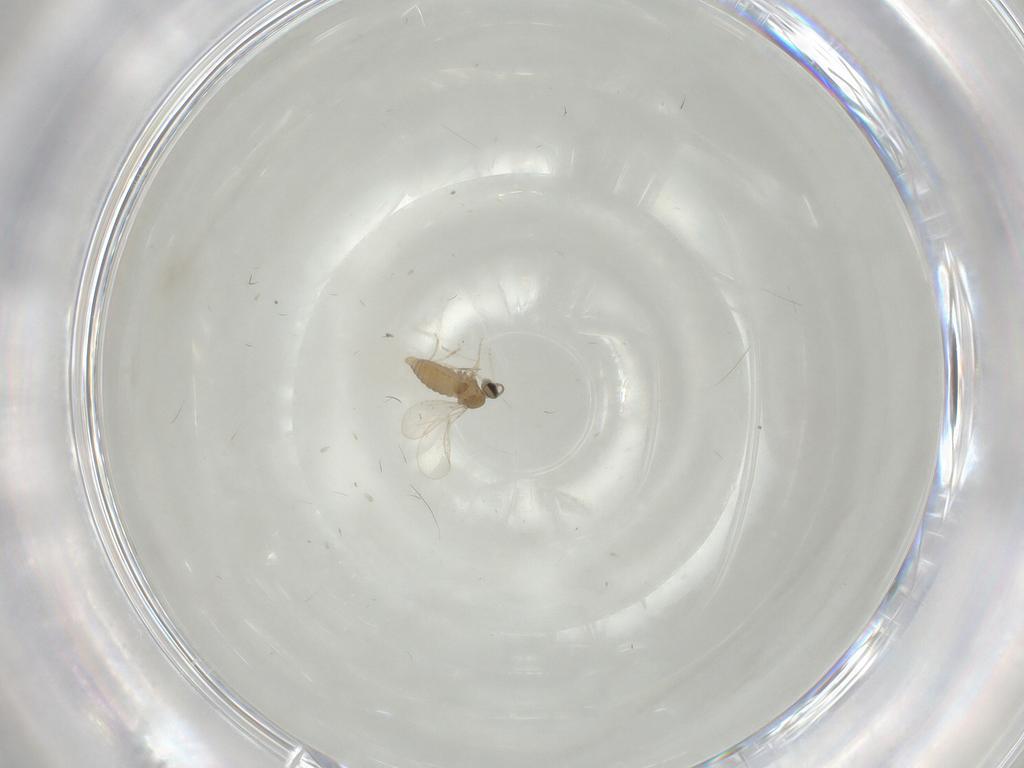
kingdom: Animalia
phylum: Arthropoda
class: Insecta
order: Diptera
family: Cecidomyiidae
